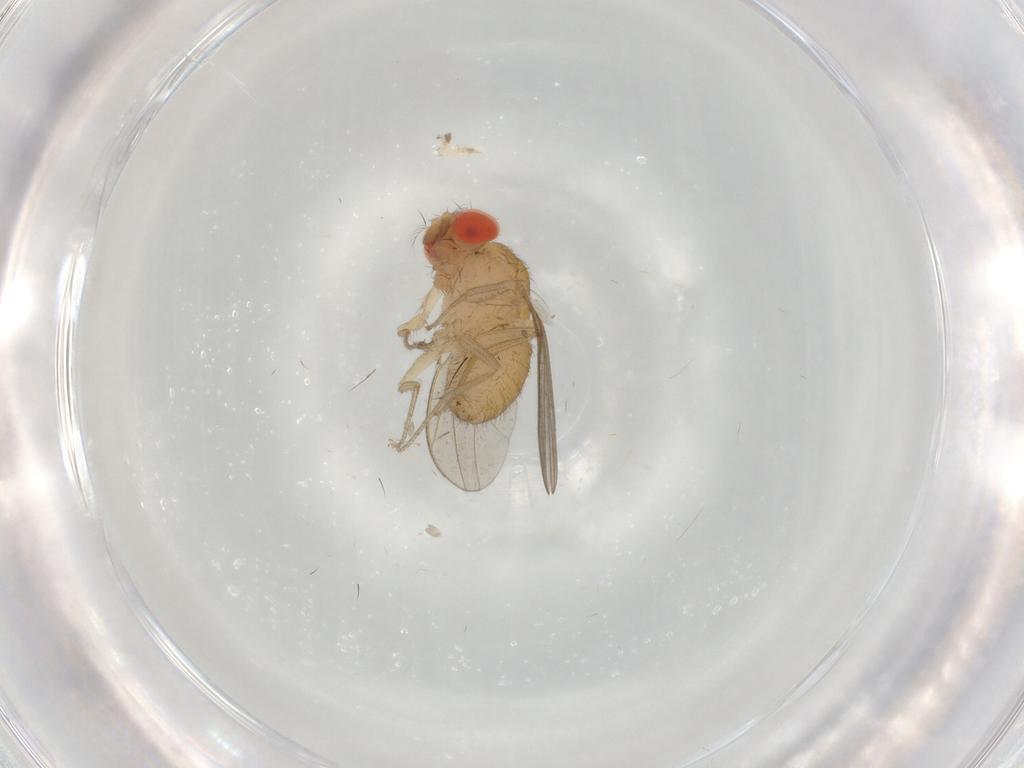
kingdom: Animalia
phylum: Arthropoda
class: Insecta
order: Diptera
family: Drosophilidae
